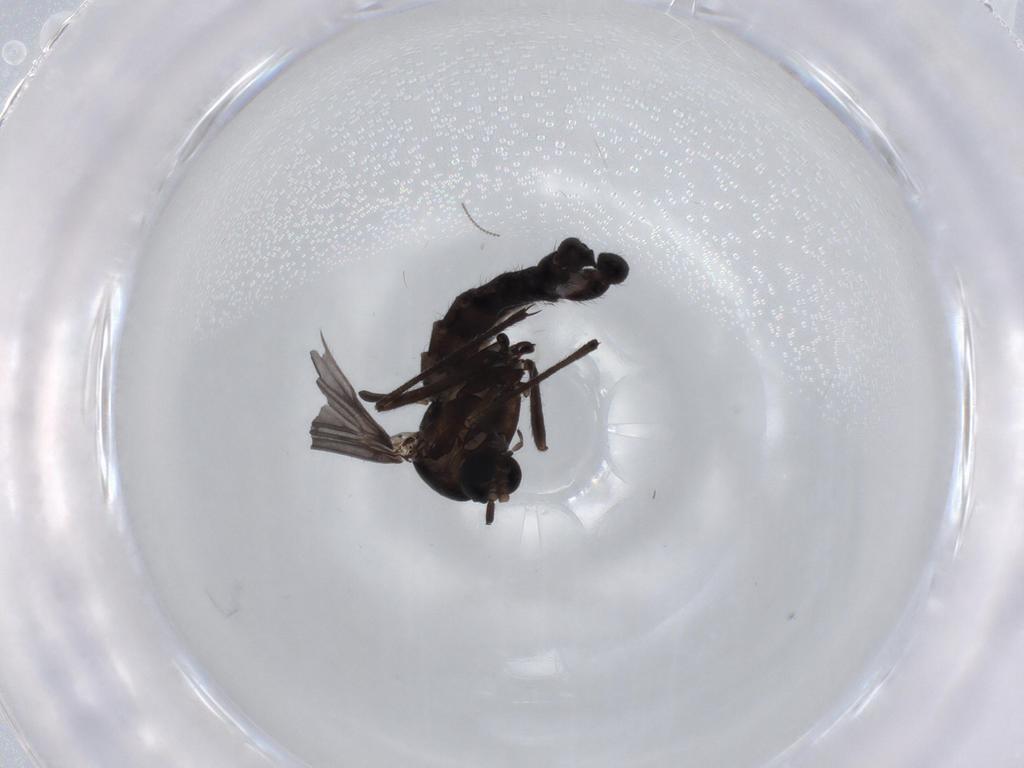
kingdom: Animalia
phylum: Arthropoda
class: Insecta
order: Diptera
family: Sciaridae
